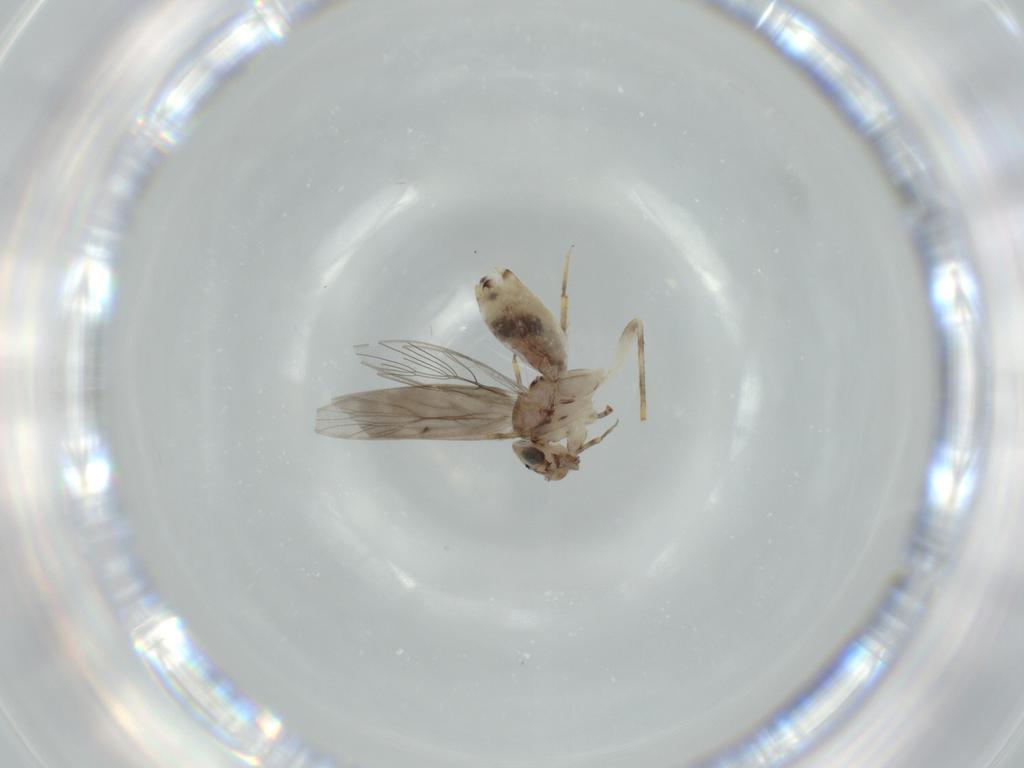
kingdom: Animalia
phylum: Arthropoda
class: Insecta
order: Psocodea
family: Lepidopsocidae
